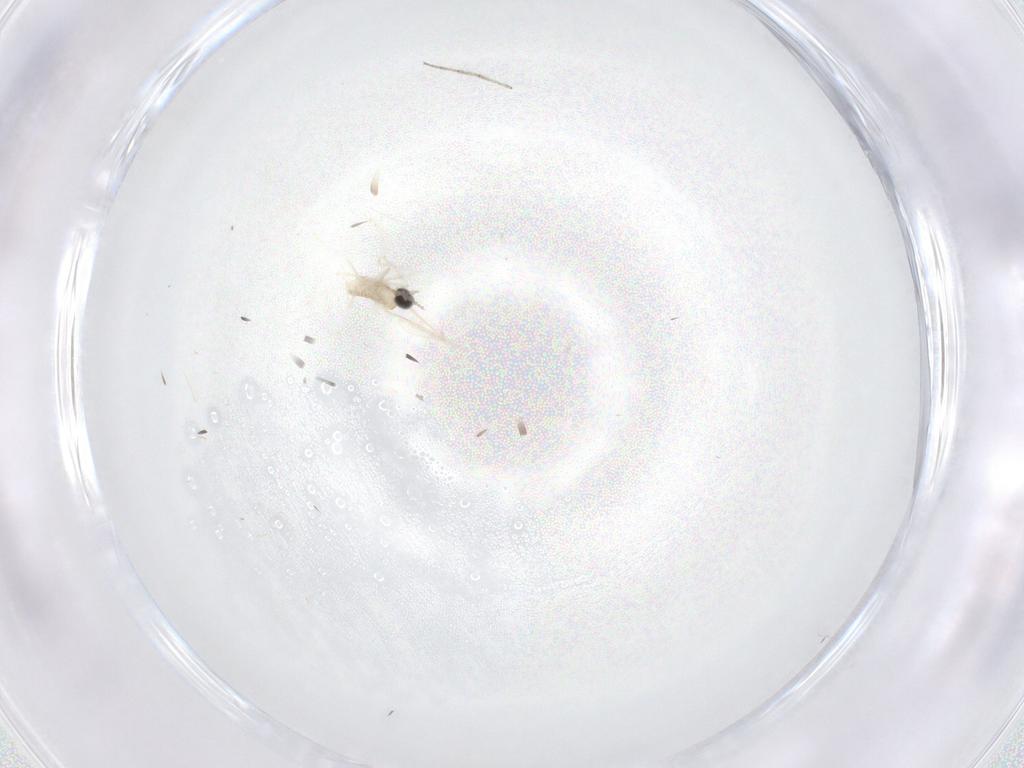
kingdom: Animalia
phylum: Arthropoda
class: Insecta
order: Diptera
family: Cecidomyiidae
